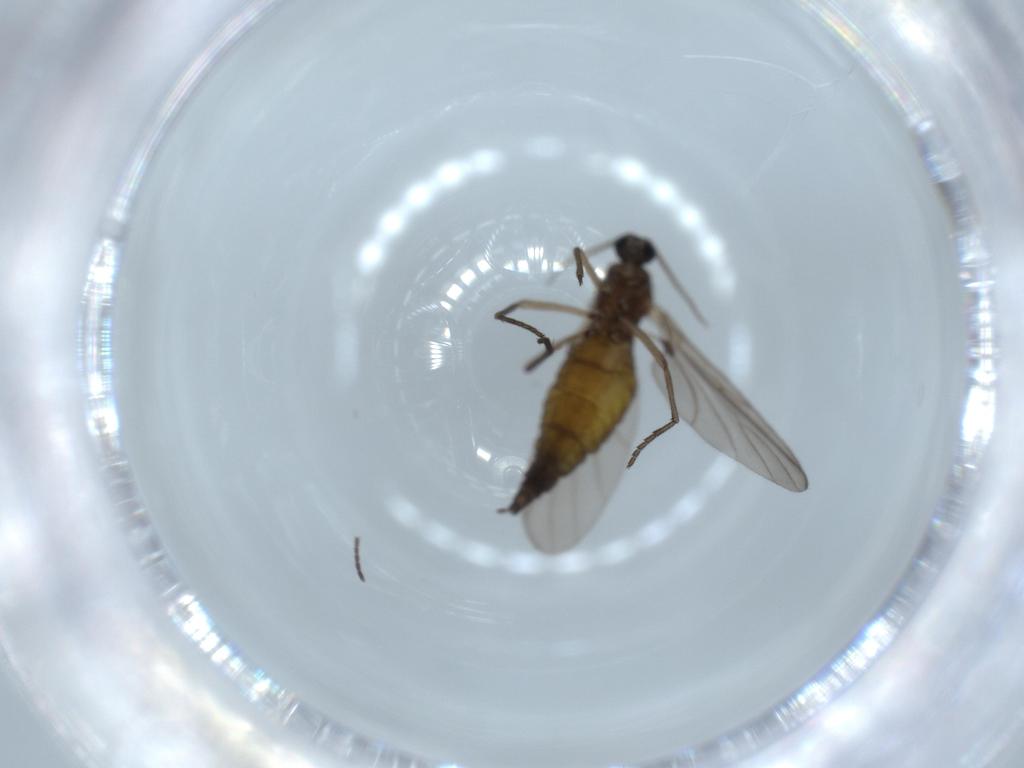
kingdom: Animalia
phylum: Arthropoda
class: Insecta
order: Diptera
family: Sciaridae
